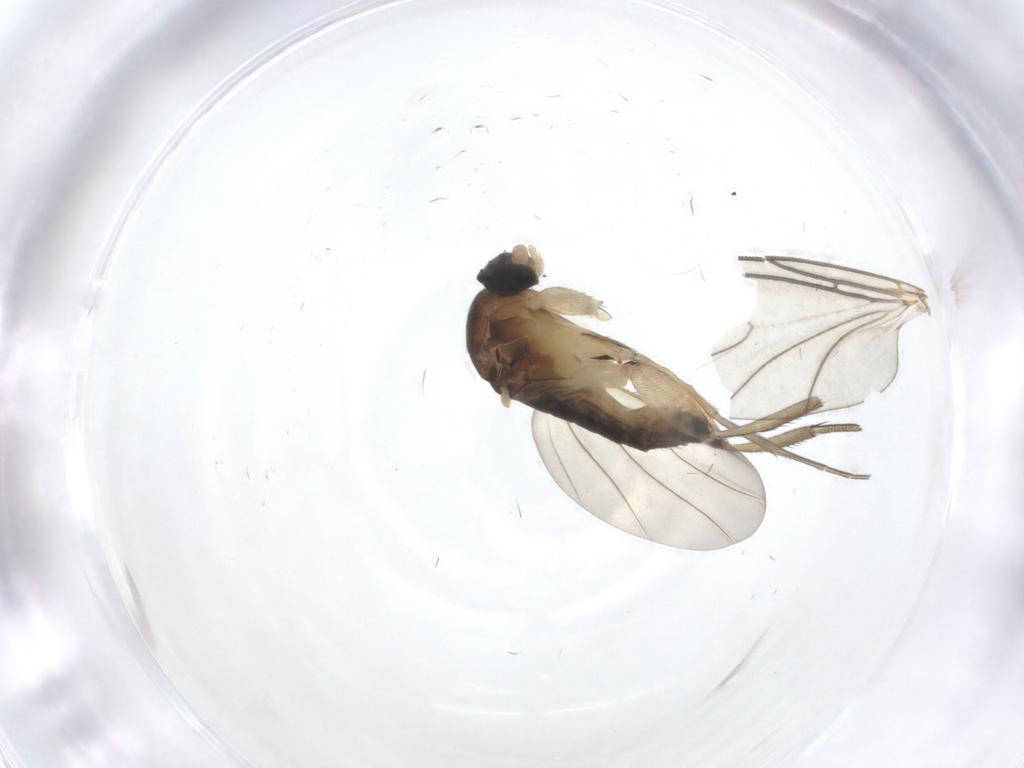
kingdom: Animalia
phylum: Arthropoda
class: Insecta
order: Diptera
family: Phoridae
